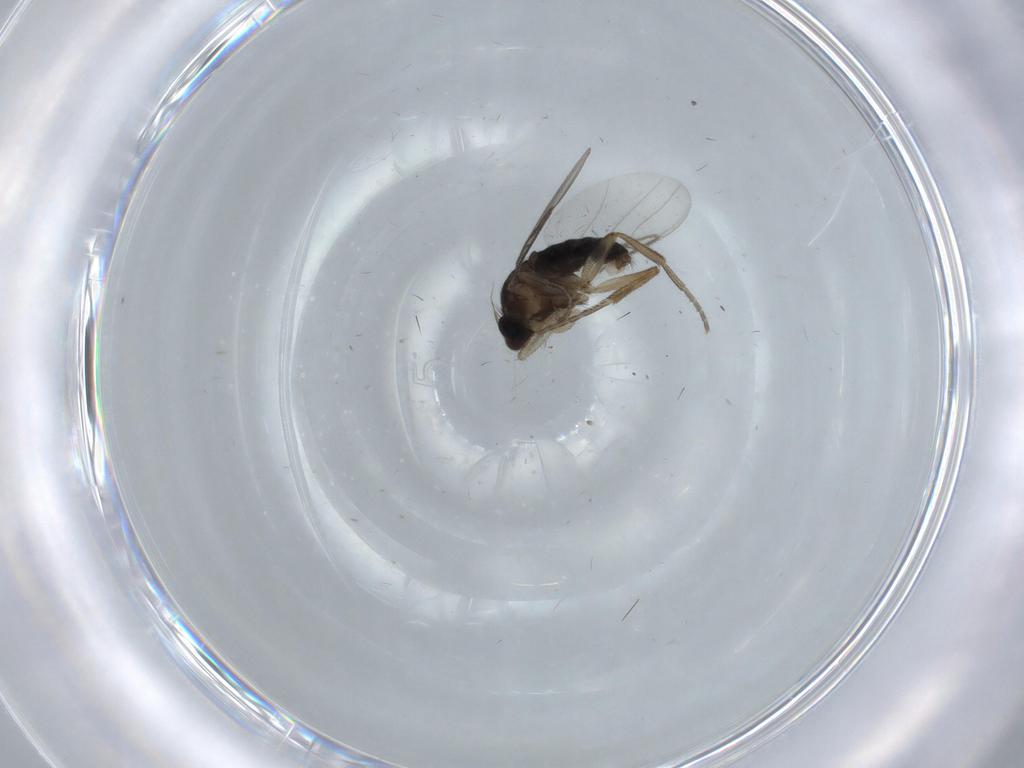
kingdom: Animalia
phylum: Arthropoda
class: Insecta
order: Diptera
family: Phoridae
